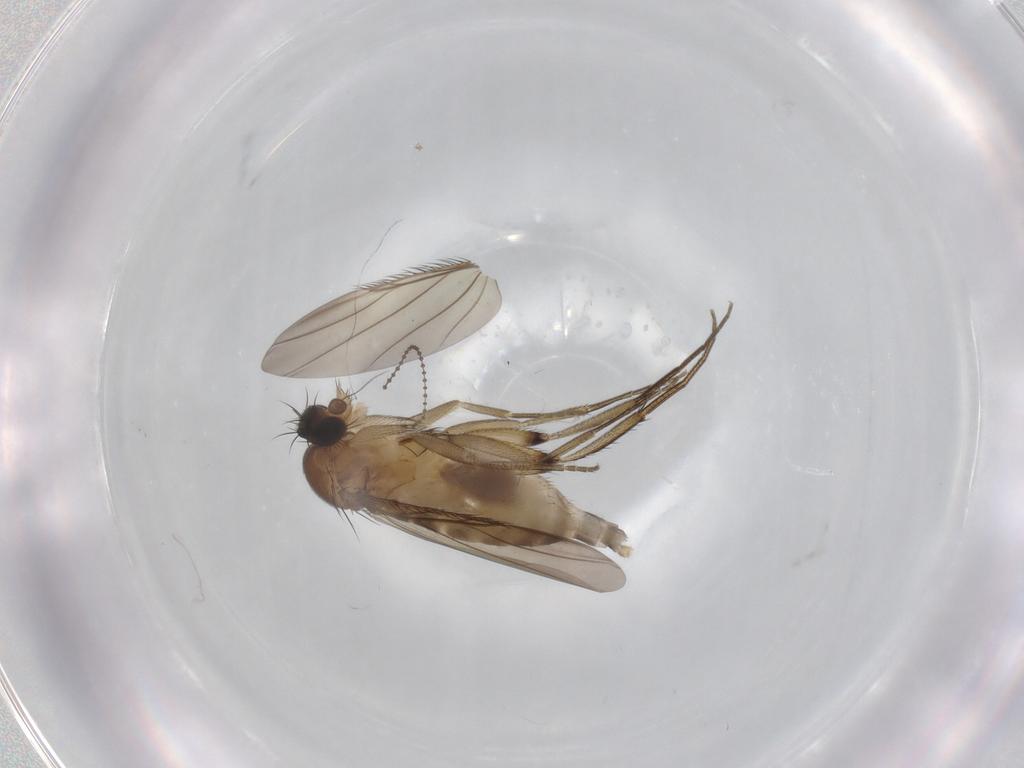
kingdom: Animalia
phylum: Arthropoda
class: Insecta
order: Diptera
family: Phoridae
